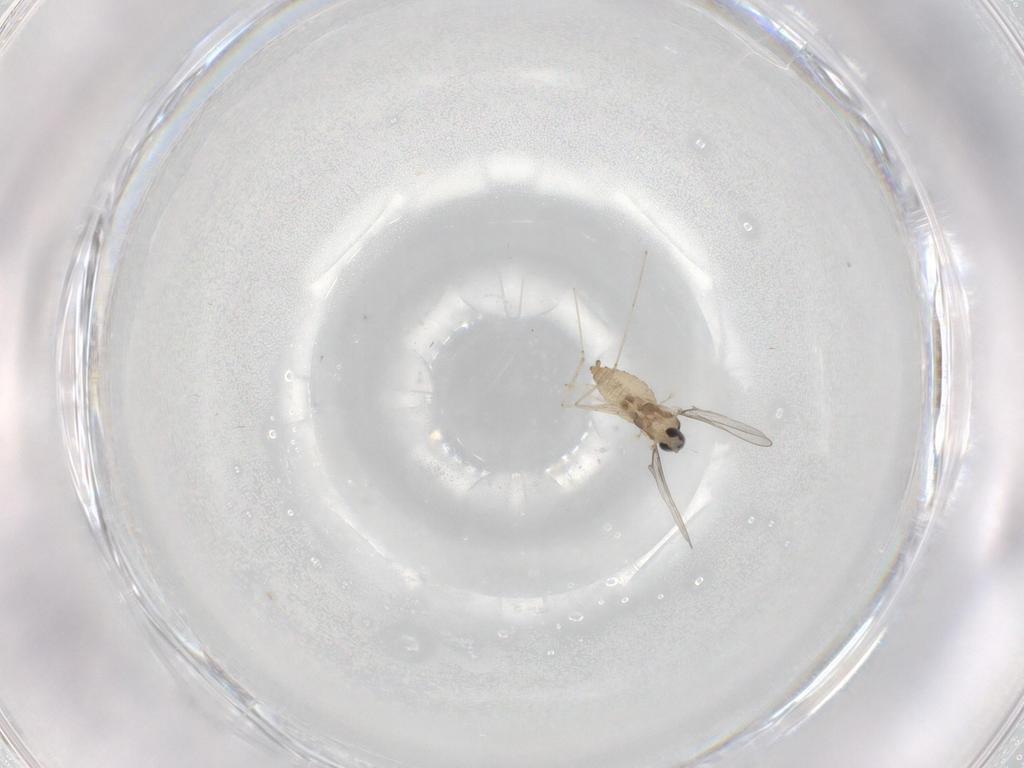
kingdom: Animalia
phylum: Arthropoda
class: Insecta
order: Diptera
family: Cecidomyiidae
